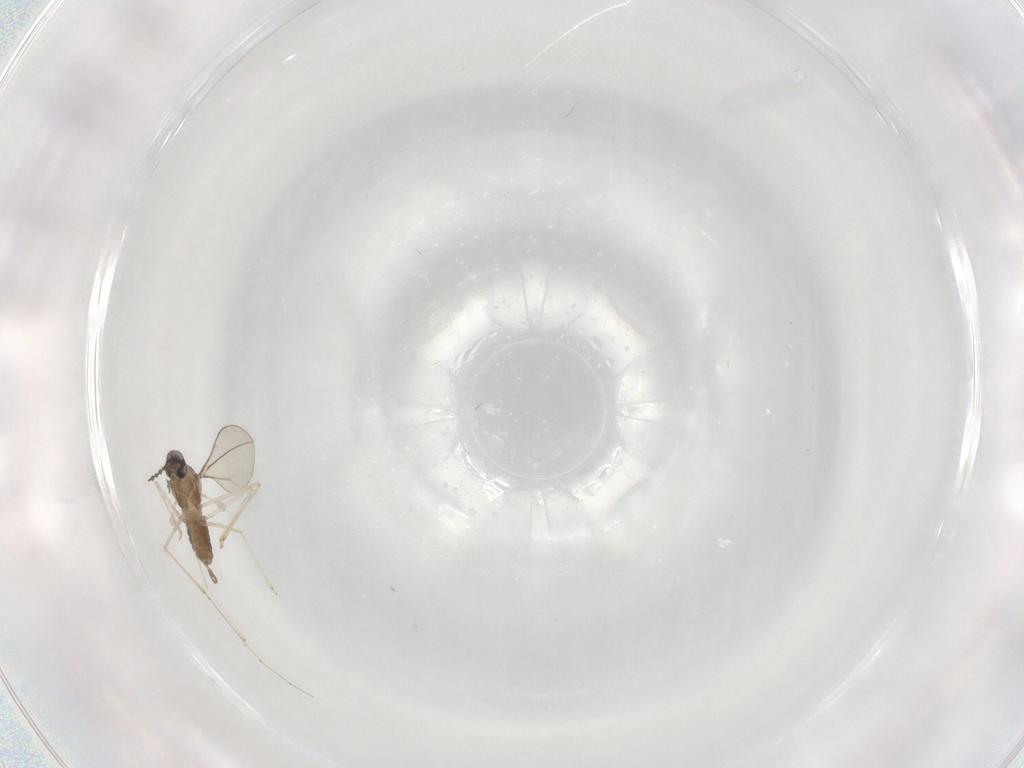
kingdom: Animalia
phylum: Arthropoda
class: Insecta
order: Diptera
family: Cecidomyiidae
